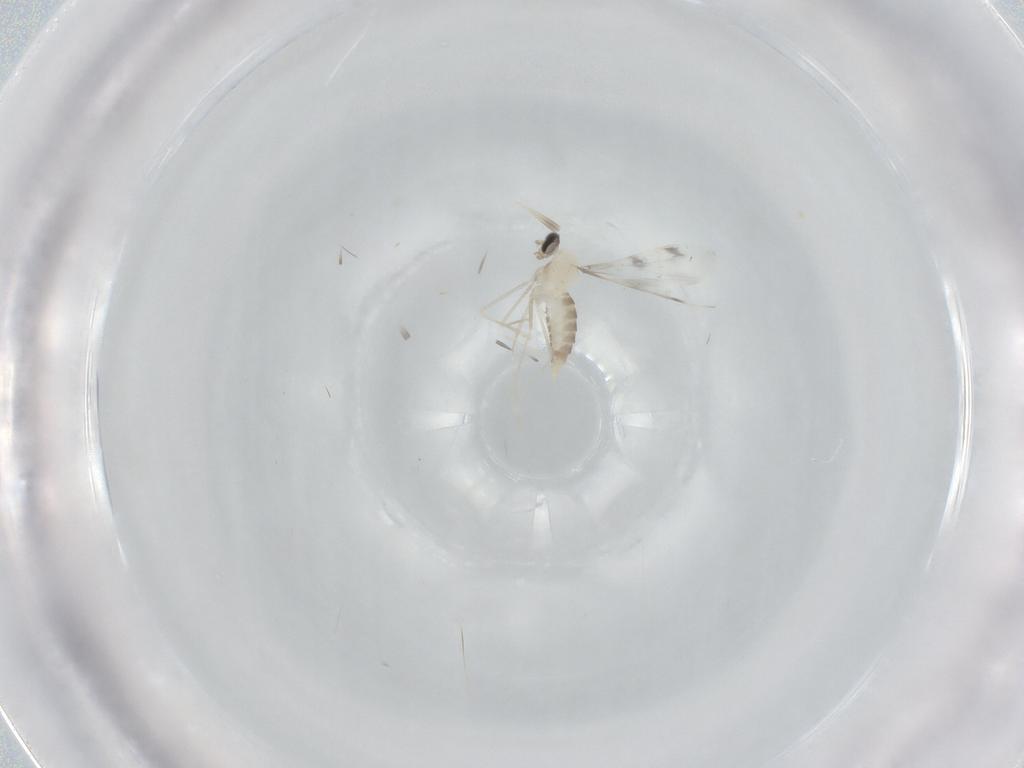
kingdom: Animalia
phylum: Arthropoda
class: Insecta
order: Diptera
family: Cecidomyiidae
